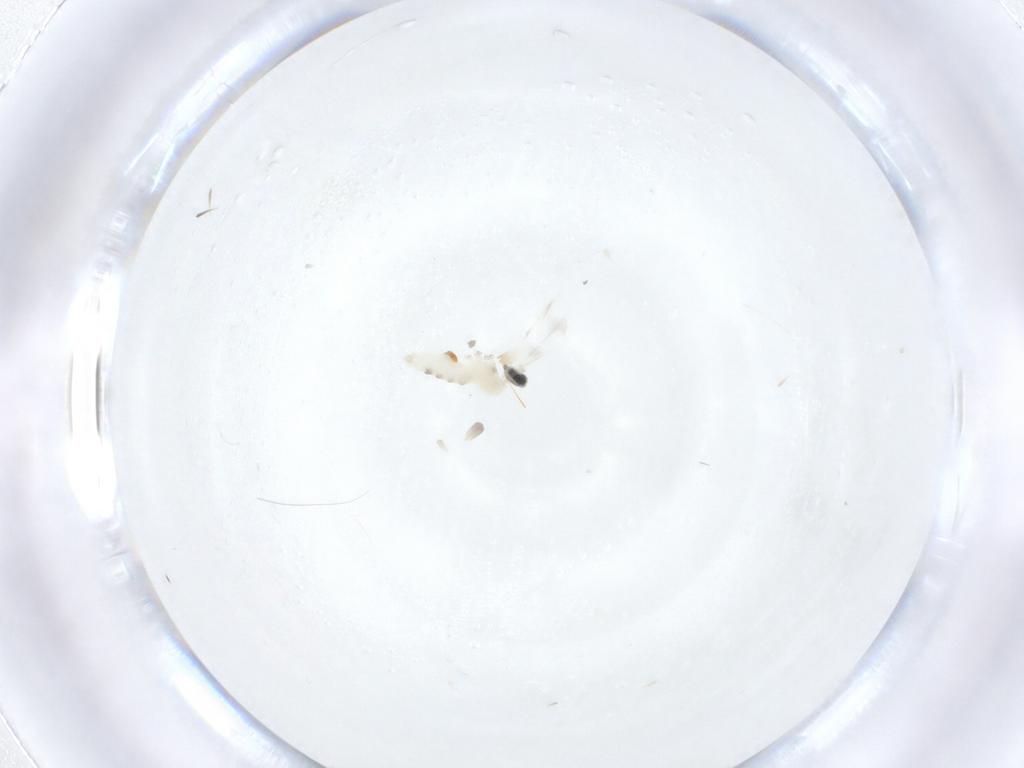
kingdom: Animalia
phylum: Arthropoda
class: Insecta
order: Diptera
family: Cecidomyiidae
